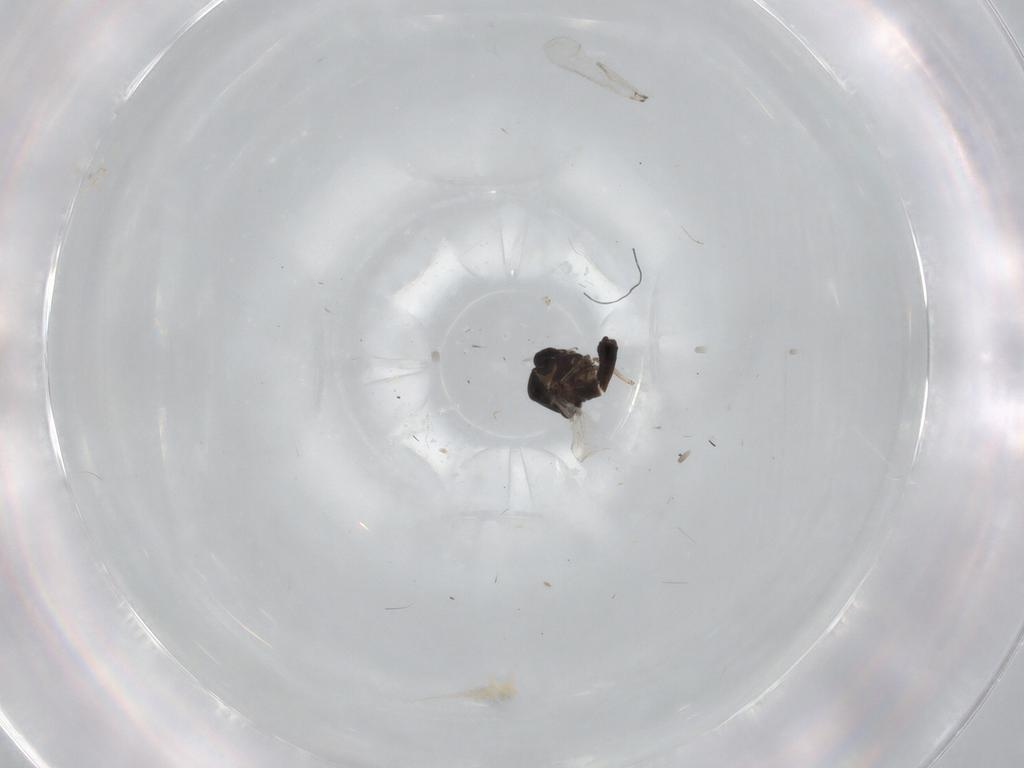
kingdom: Animalia
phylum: Arthropoda
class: Insecta
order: Diptera
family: Ceratopogonidae
